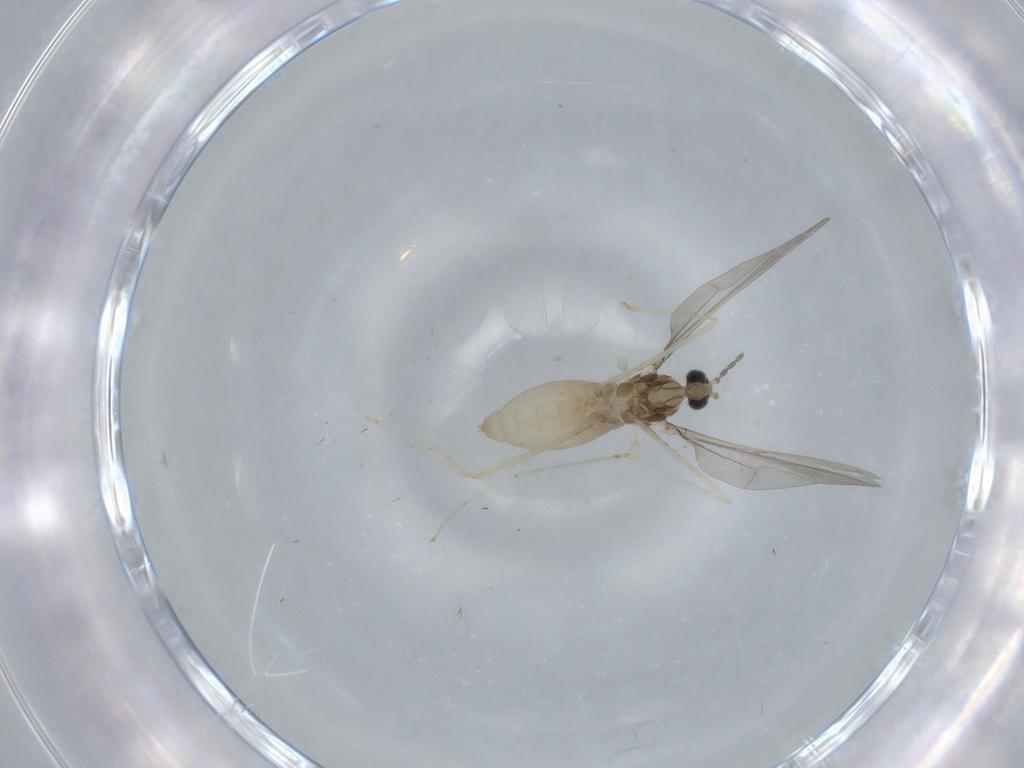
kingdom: Animalia
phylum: Arthropoda
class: Insecta
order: Diptera
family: Cecidomyiidae
